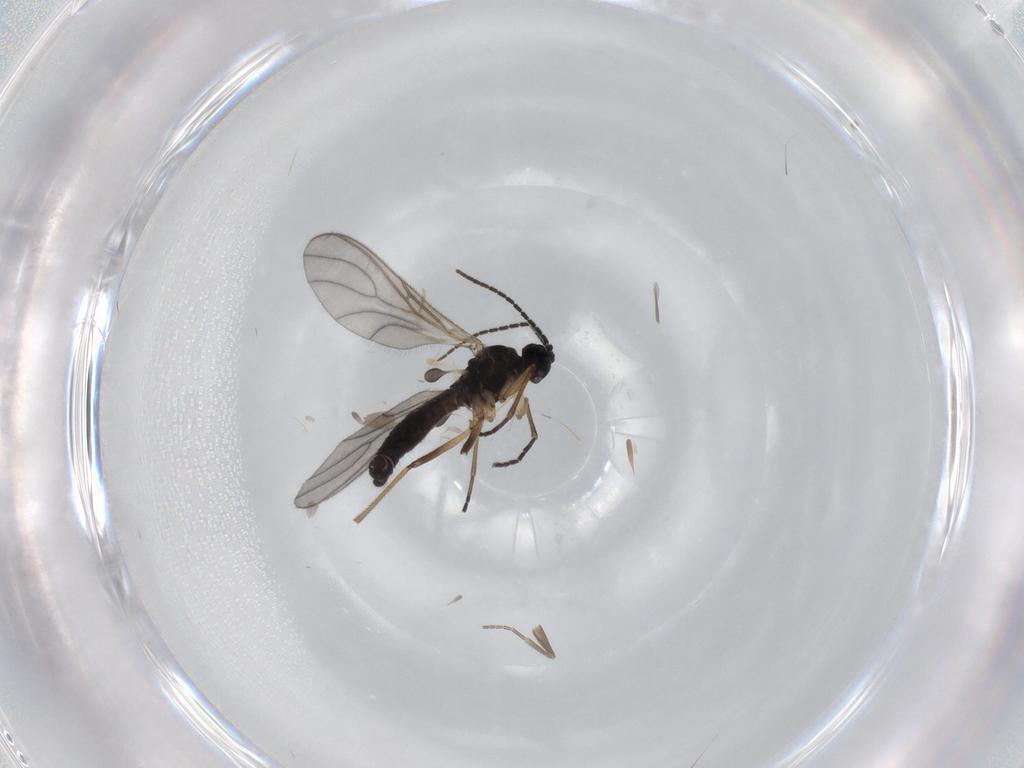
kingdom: Animalia
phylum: Arthropoda
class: Insecta
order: Diptera
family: Sciaridae
